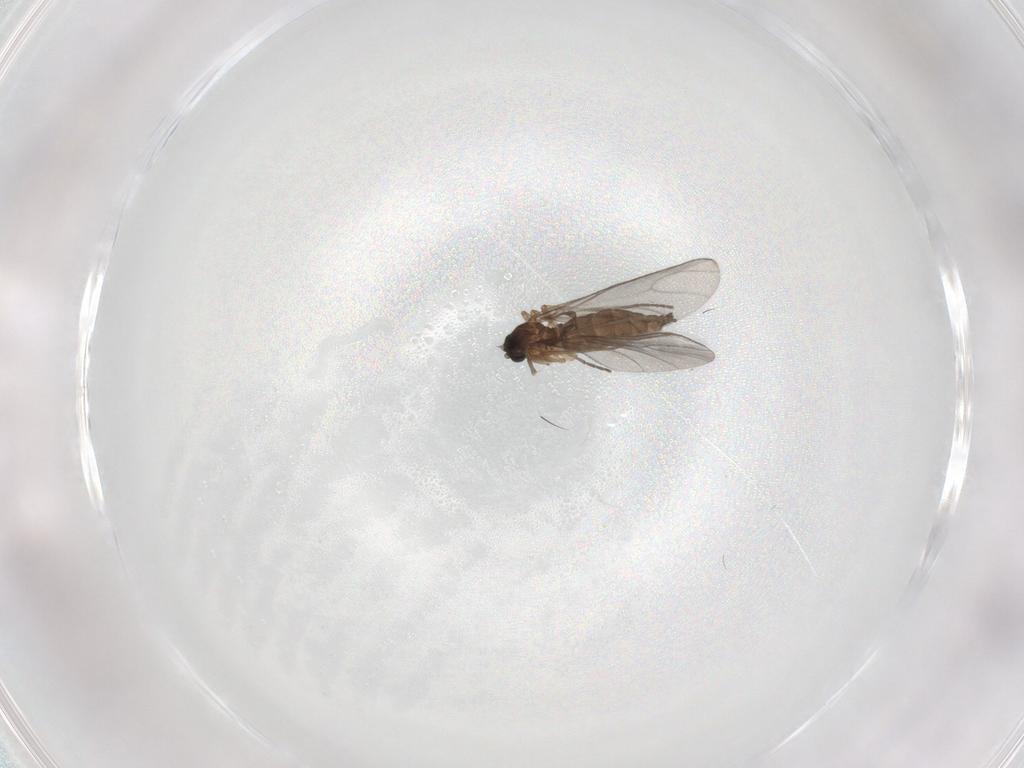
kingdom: Animalia
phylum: Arthropoda
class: Insecta
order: Diptera
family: Sciaridae
